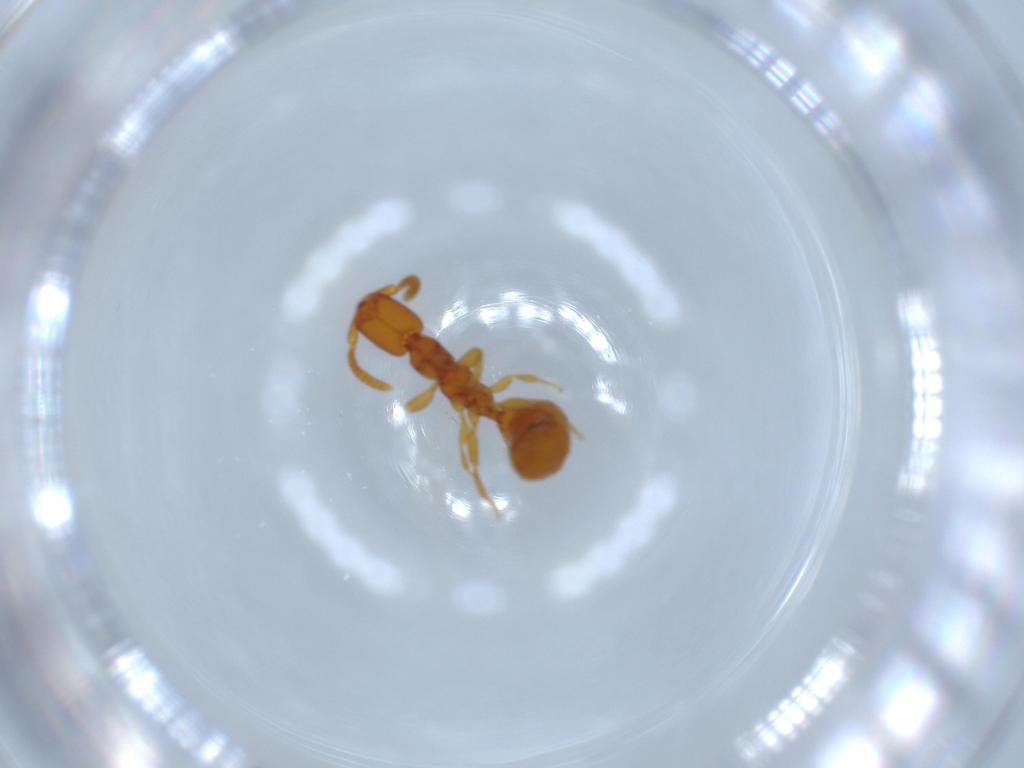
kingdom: Animalia
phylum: Arthropoda
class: Insecta
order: Hymenoptera
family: Bethylidae
